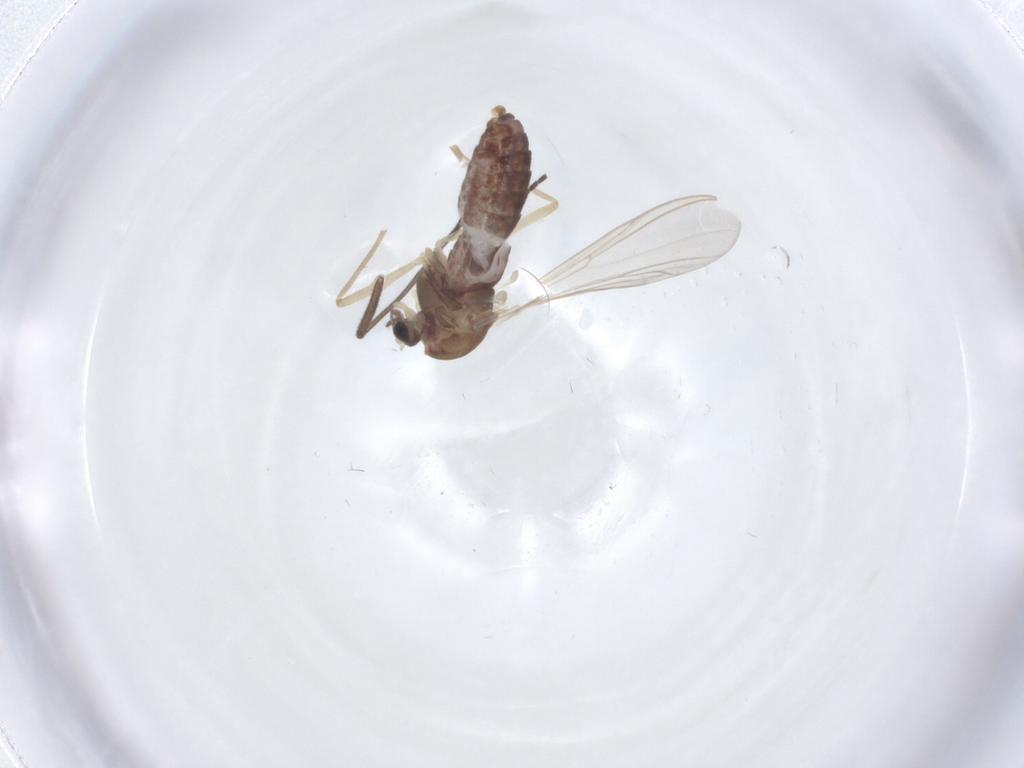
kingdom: Animalia
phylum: Arthropoda
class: Insecta
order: Diptera
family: Chironomidae
